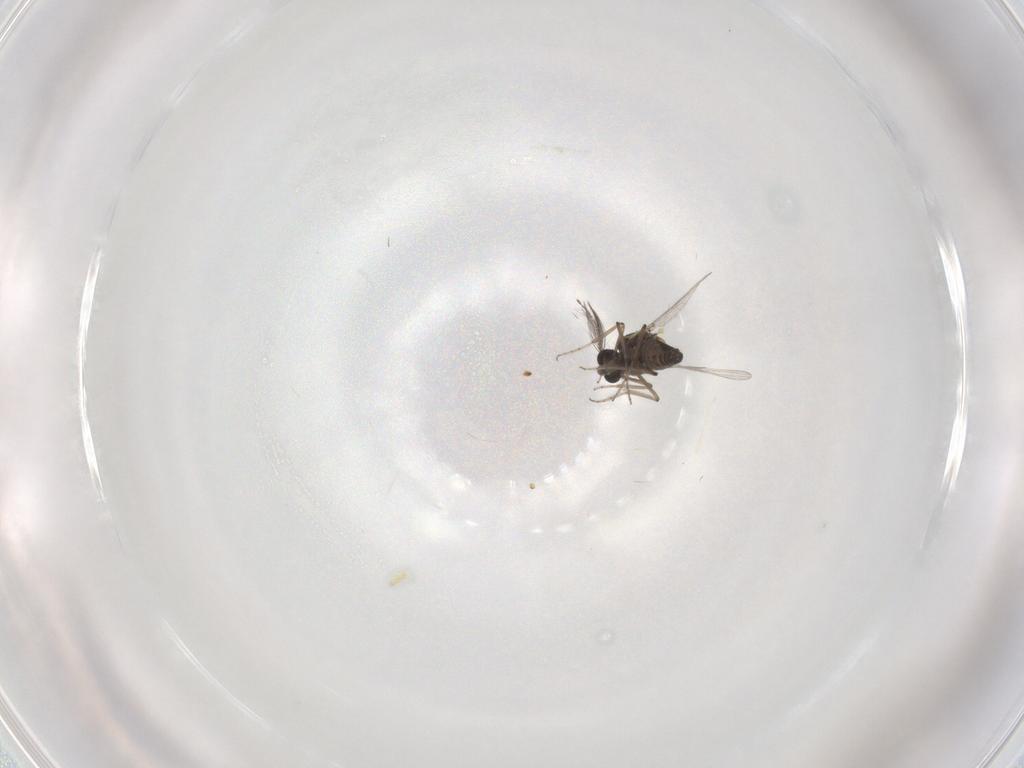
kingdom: Animalia
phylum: Arthropoda
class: Insecta
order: Diptera
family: Ceratopogonidae
